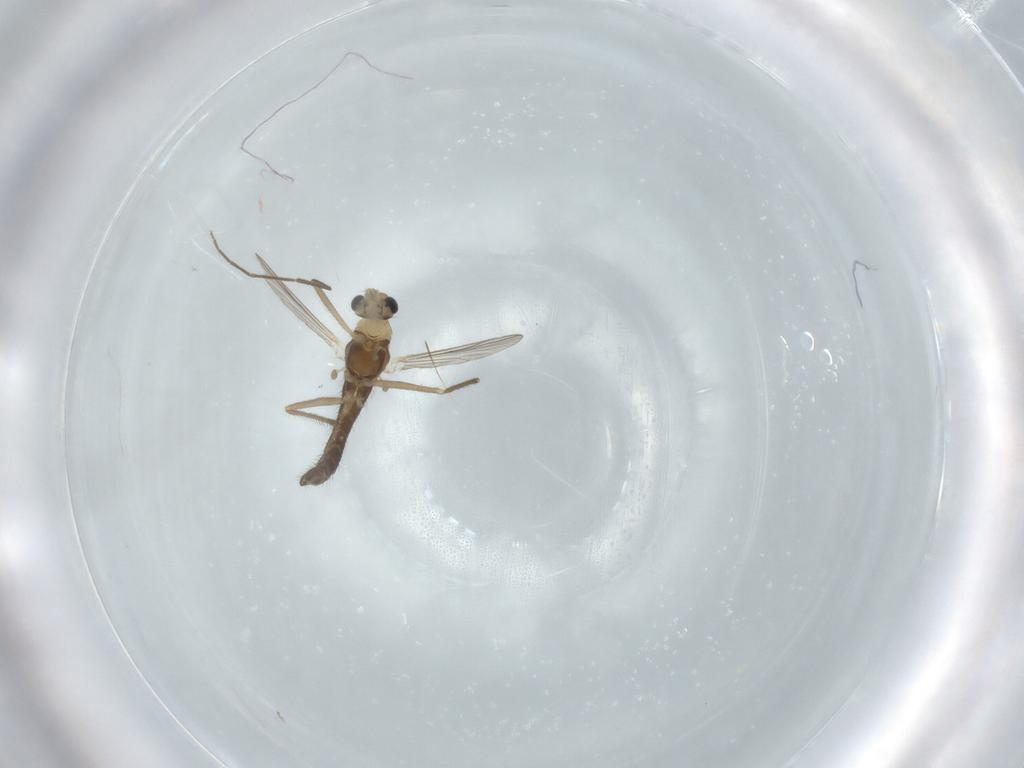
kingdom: Animalia
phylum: Arthropoda
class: Insecta
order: Diptera
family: Chironomidae
